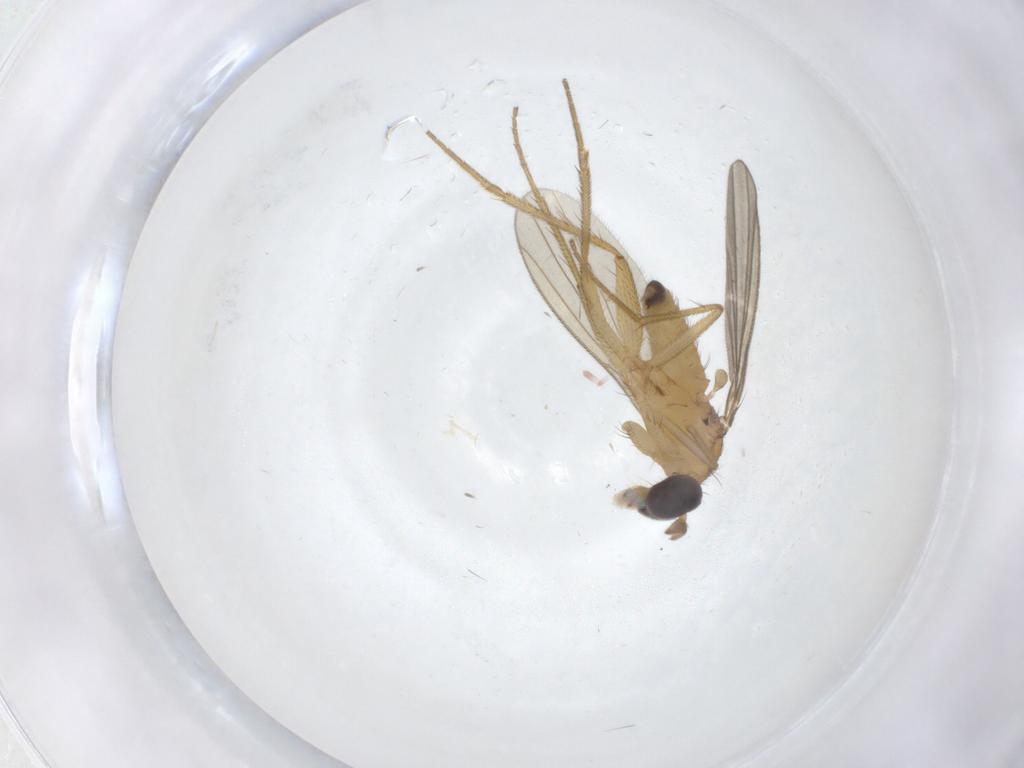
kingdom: Animalia
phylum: Arthropoda
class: Insecta
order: Diptera
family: Dolichopodidae
